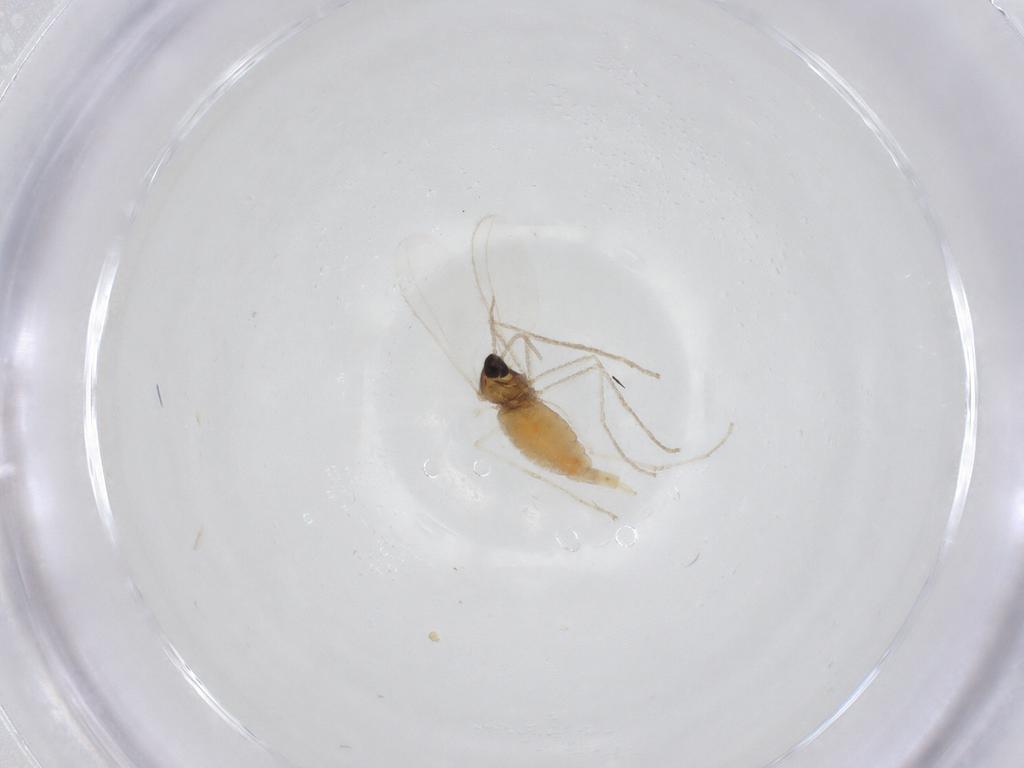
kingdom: Animalia
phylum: Arthropoda
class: Insecta
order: Diptera
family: Cecidomyiidae
